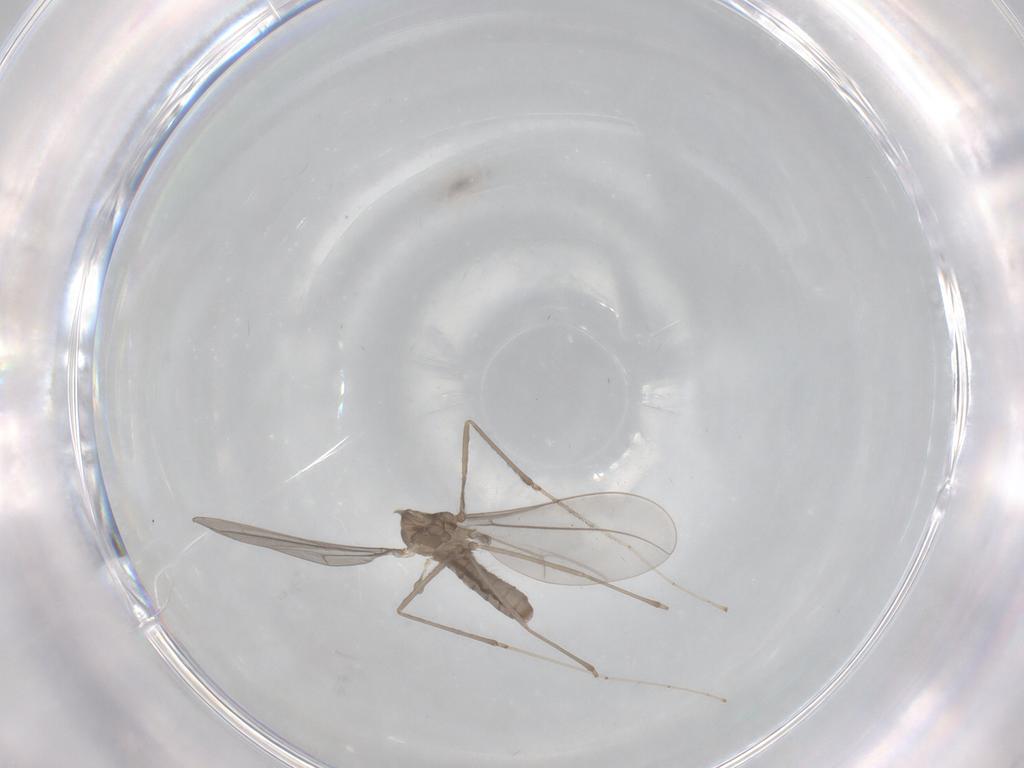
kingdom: Animalia
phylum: Arthropoda
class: Insecta
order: Diptera
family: Cecidomyiidae
